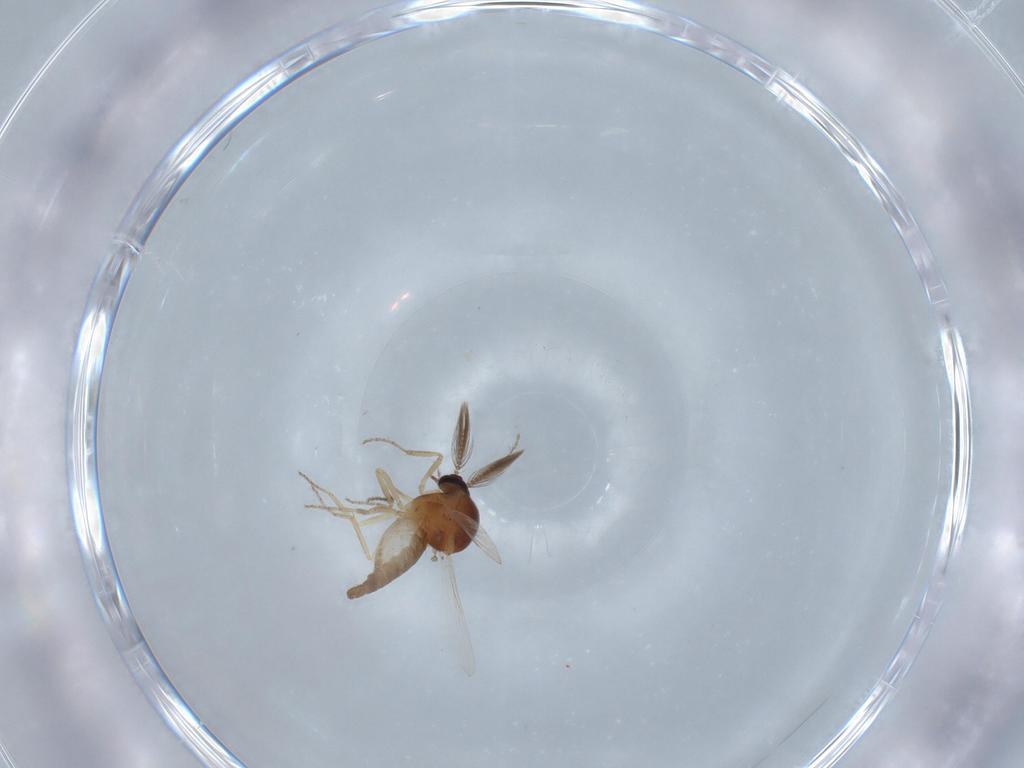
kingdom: Animalia
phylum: Arthropoda
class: Insecta
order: Diptera
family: Ceratopogonidae
